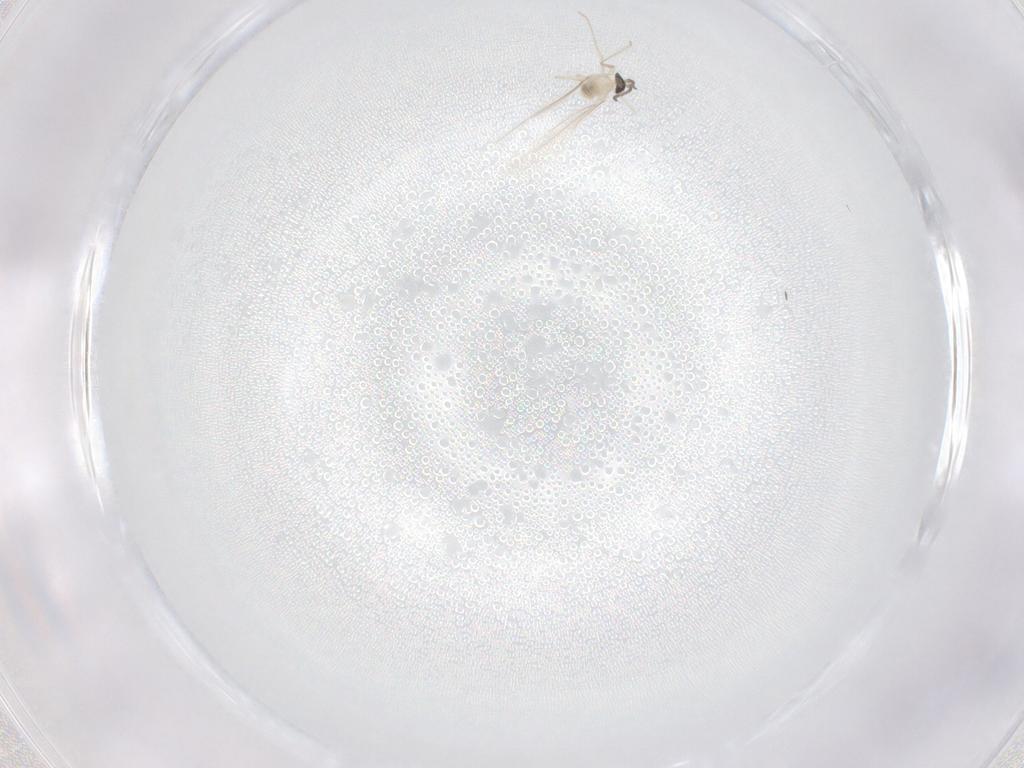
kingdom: Animalia
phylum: Arthropoda
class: Insecta
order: Diptera
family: Cecidomyiidae
